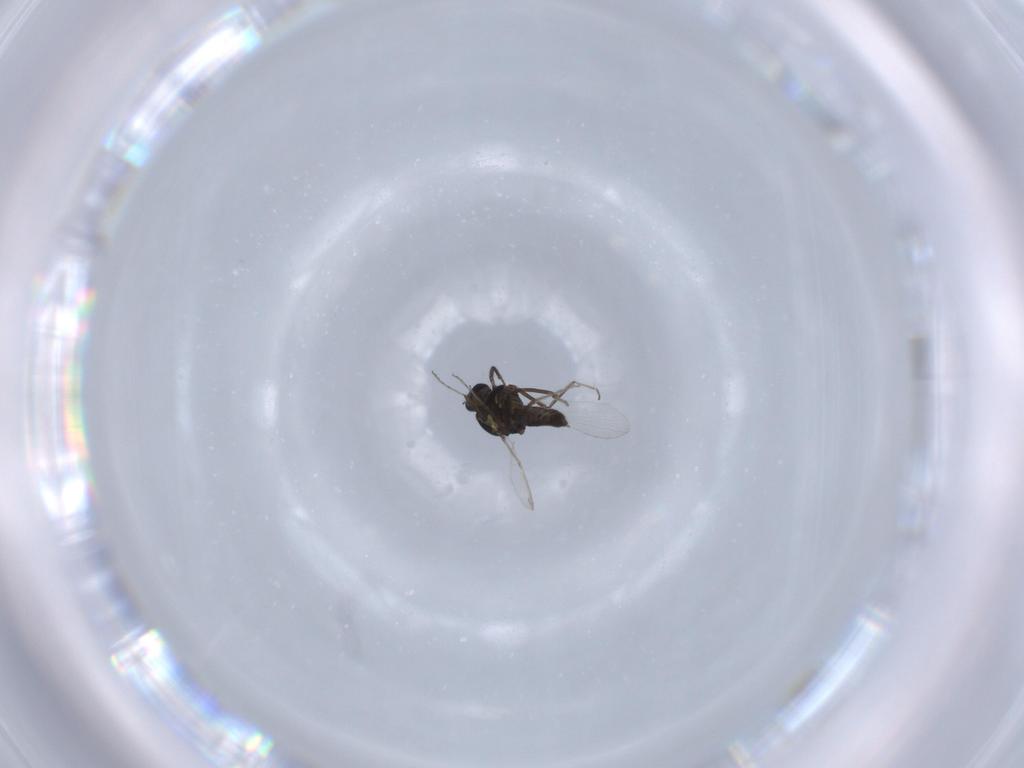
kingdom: Animalia
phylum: Arthropoda
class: Insecta
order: Diptera
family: Ceratopogonidae
